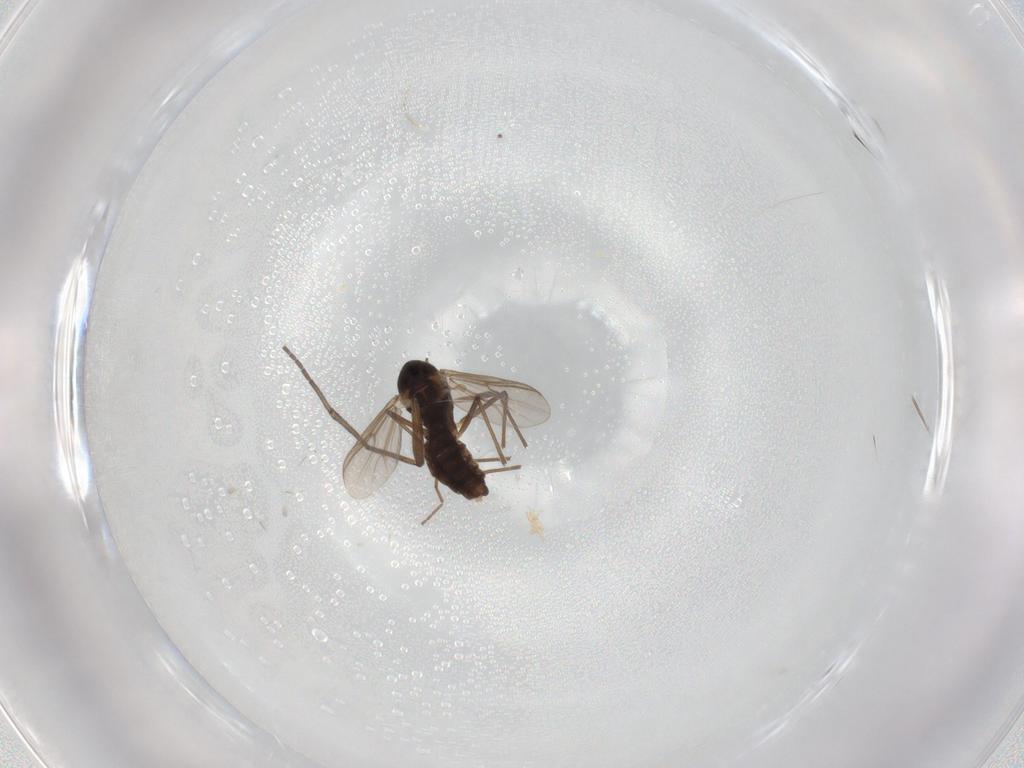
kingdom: Animalia
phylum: Arthropoda
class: Insecta
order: Diptera
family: Chironomidae
